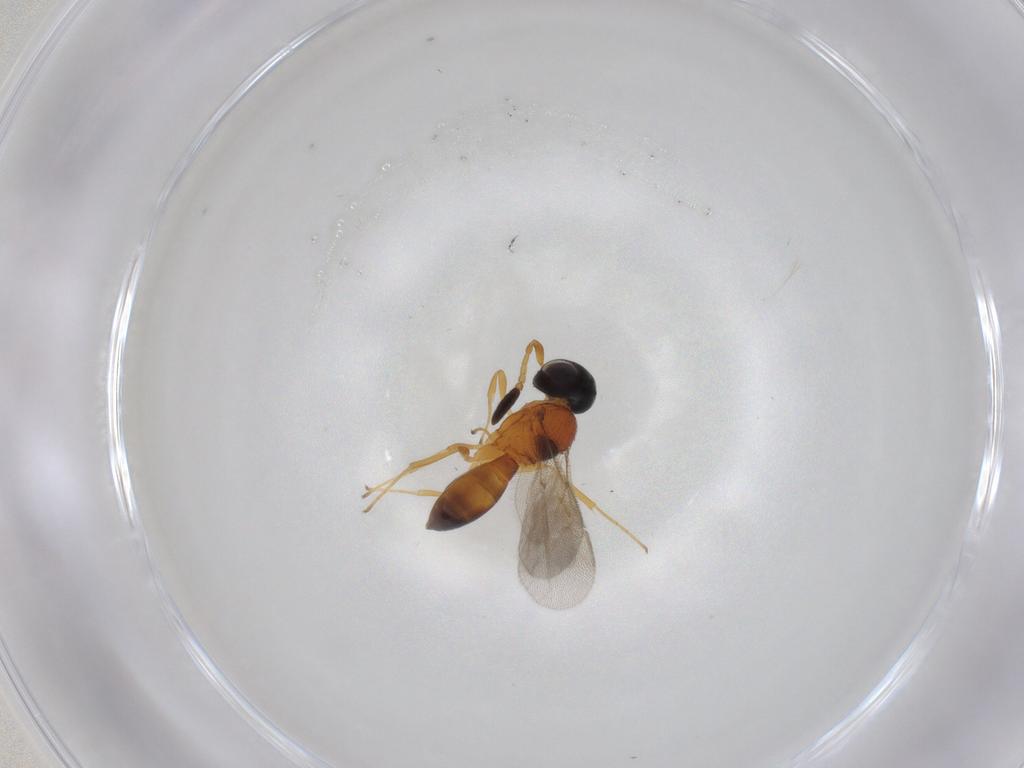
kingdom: Animalia
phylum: Arthropoda
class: Insecta
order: Hymenoptera
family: Scelionidae
